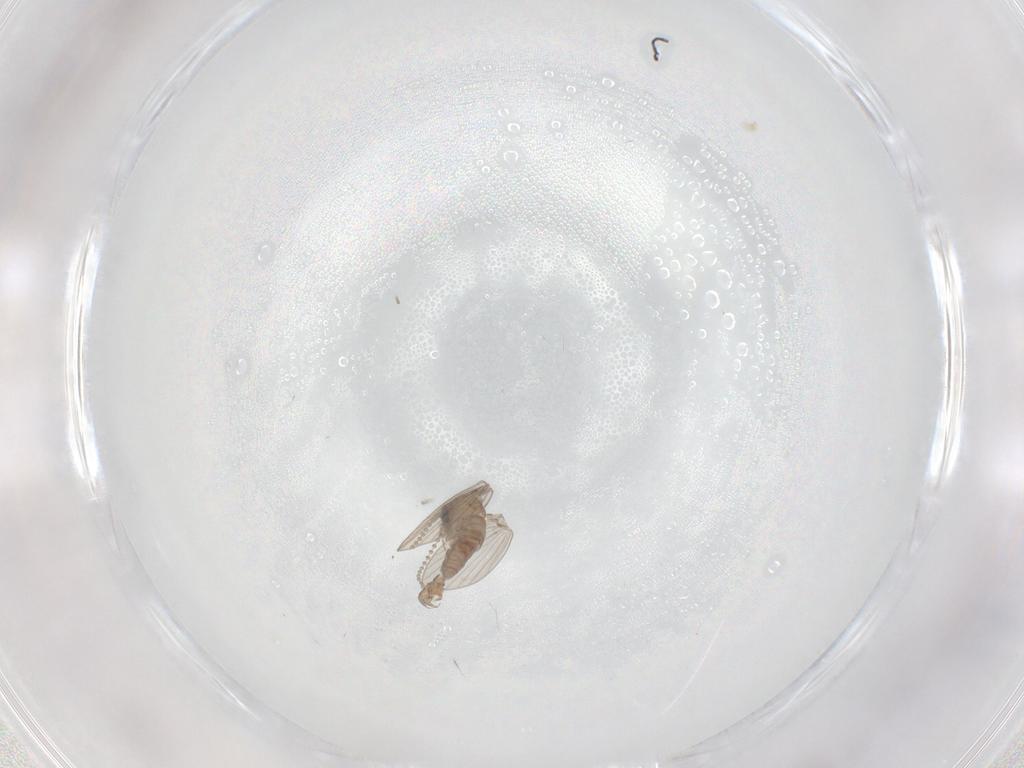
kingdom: Animalia
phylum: Arthropoda
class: Insecta
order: Diptera
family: Psychodidae
